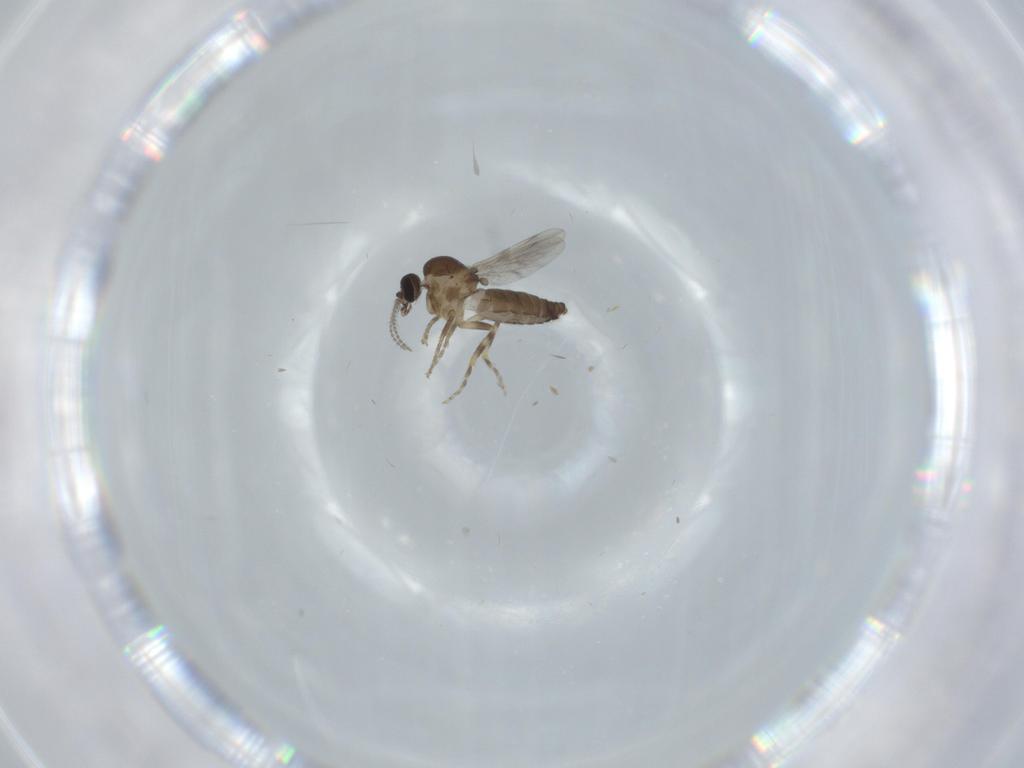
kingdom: Animalia
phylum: Arthropoda
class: Insecta
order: Diptera
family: Ceratopogonidae
